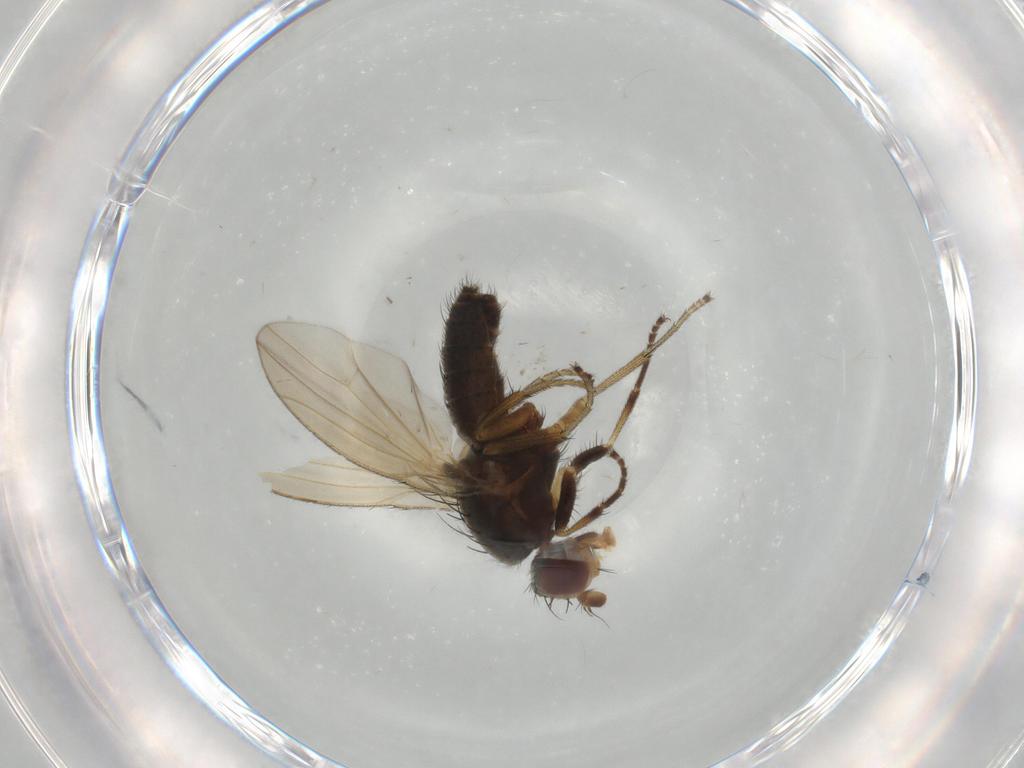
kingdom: Animalia
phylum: Arthropoda
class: Insecta
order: Diptera
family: Ulidiidae
